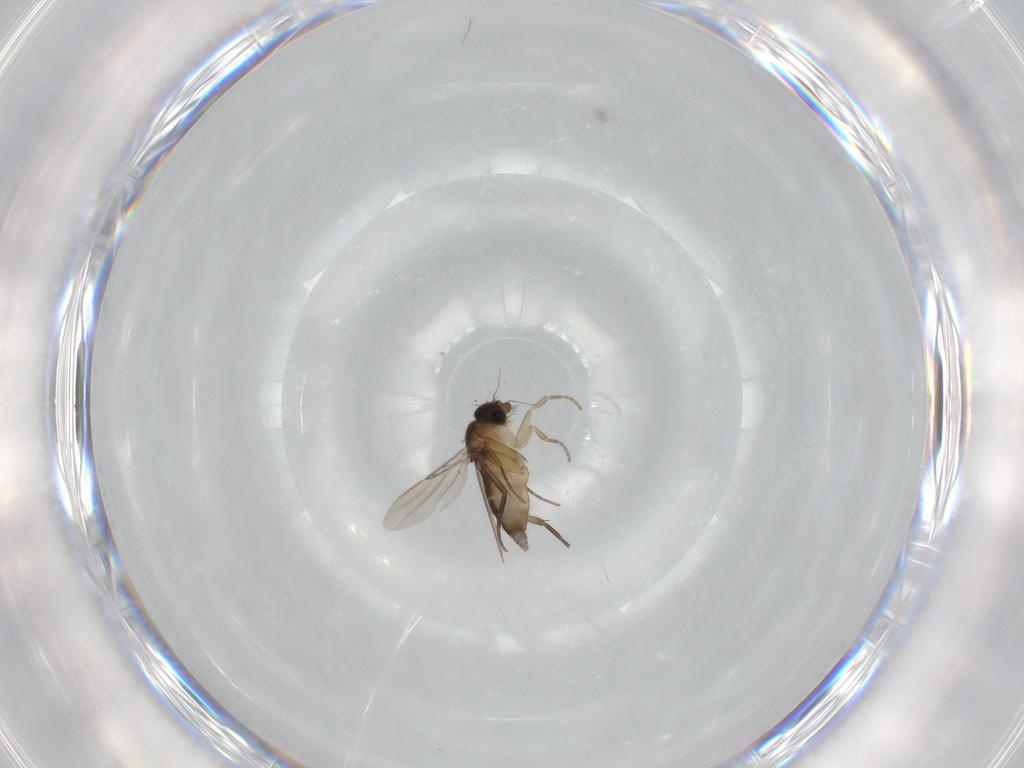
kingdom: Animalia
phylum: Arthropoda
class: Insecta
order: Diptera
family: Phoridae
